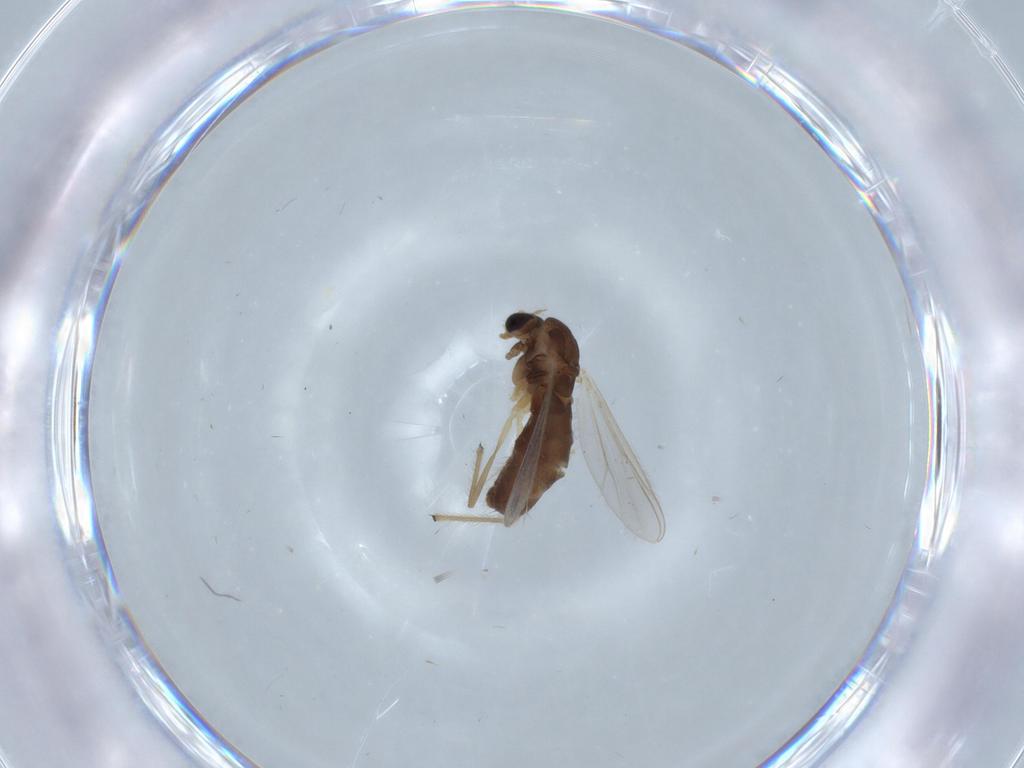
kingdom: Animalia
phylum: Arthropoda
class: Insecta
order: Diptera
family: Chironomidae
